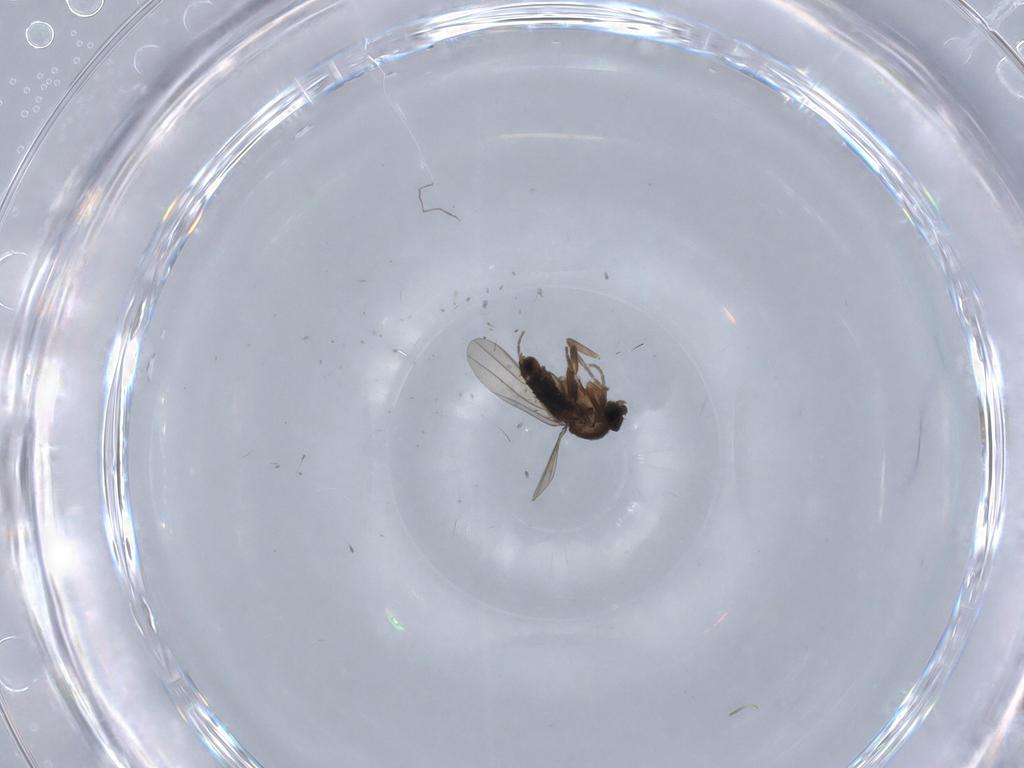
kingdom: Animalia
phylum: Arthropoda
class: Insecta
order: Diptera
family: Phoridae
